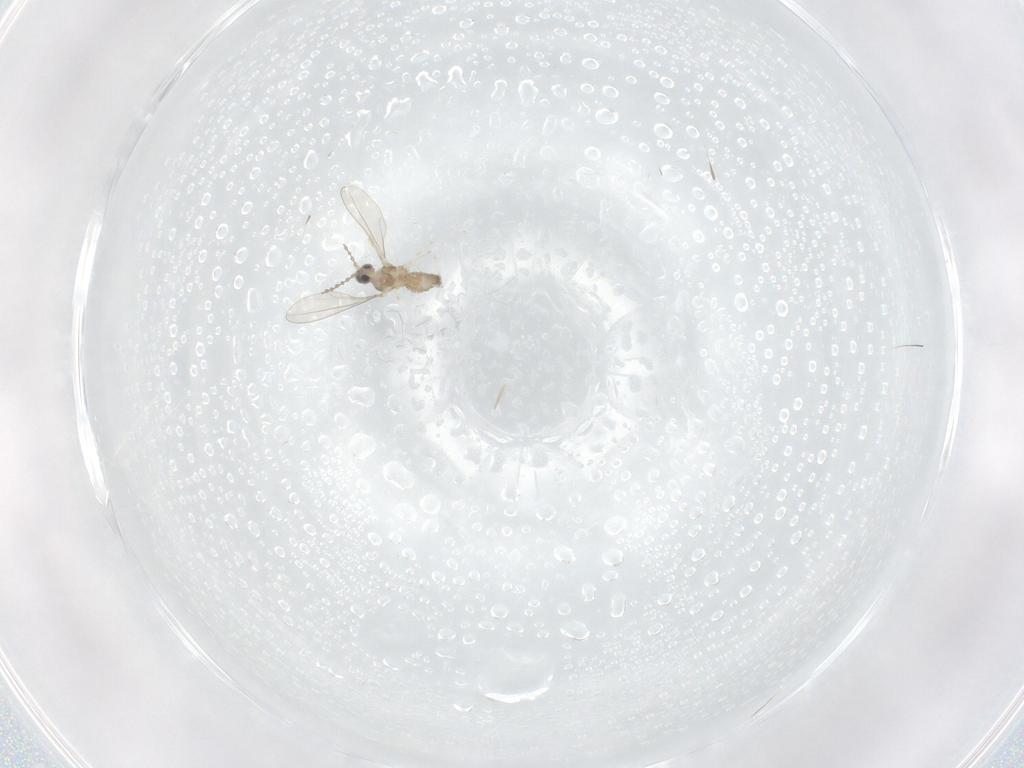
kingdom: Animalia
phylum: Arthropoda
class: Insecta
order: Diptera
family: Cecidomyiidae
